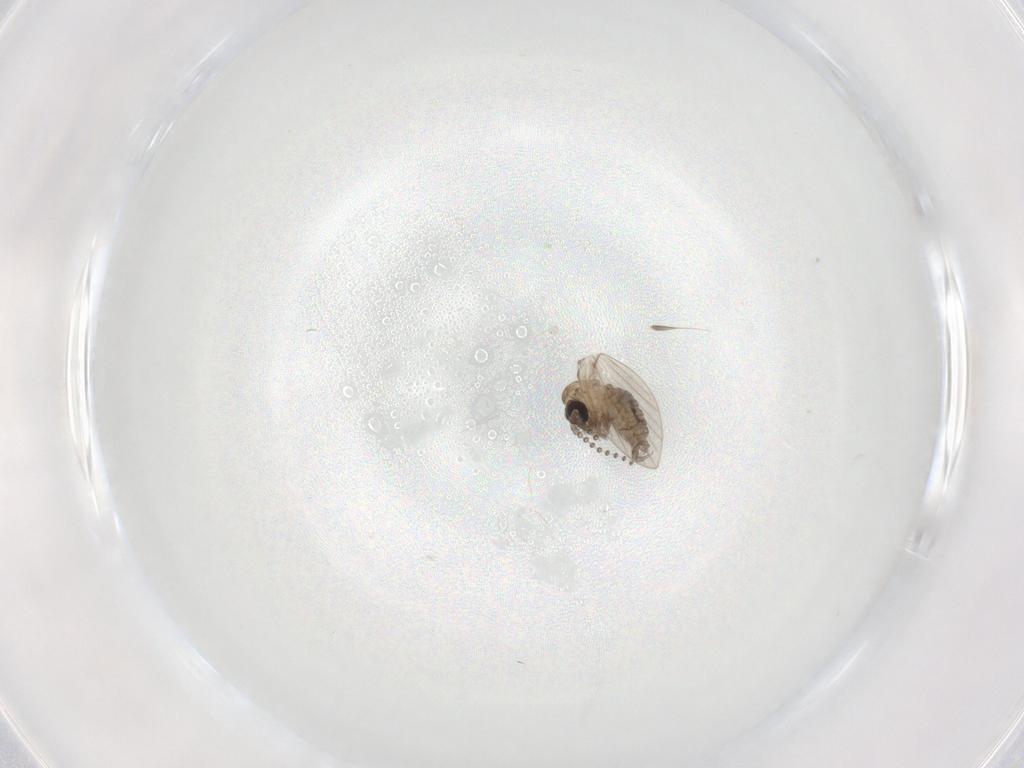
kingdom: Animalia
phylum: Arthropoda
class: Insecta
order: Diptera
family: Psychodidae
